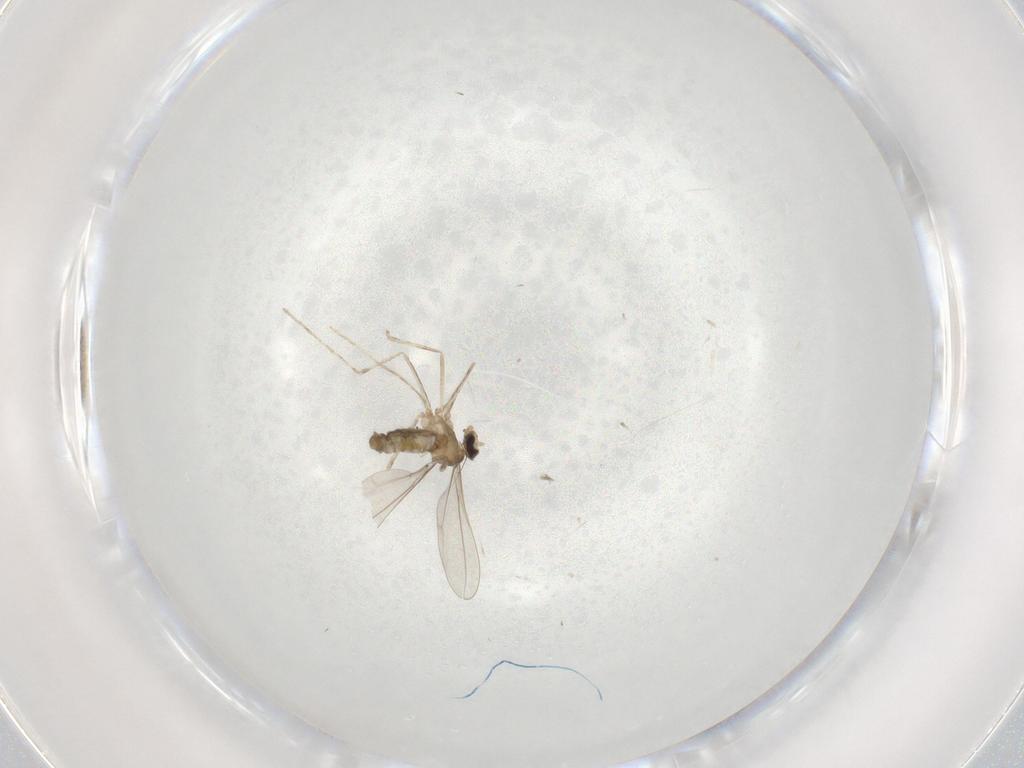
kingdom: Animalia
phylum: Arthropoda
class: Insecta
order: Diptera
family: Cecidomyiidae
